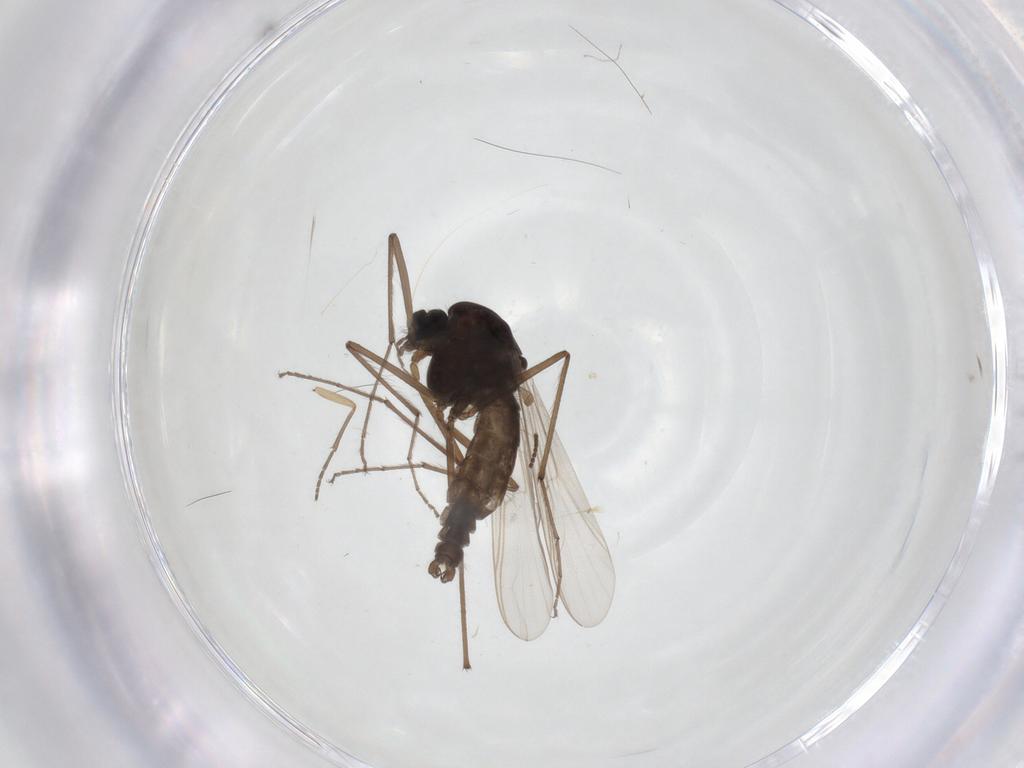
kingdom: Animalia
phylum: Arthropoda
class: Insecta
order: Diptera
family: Chironomidae
